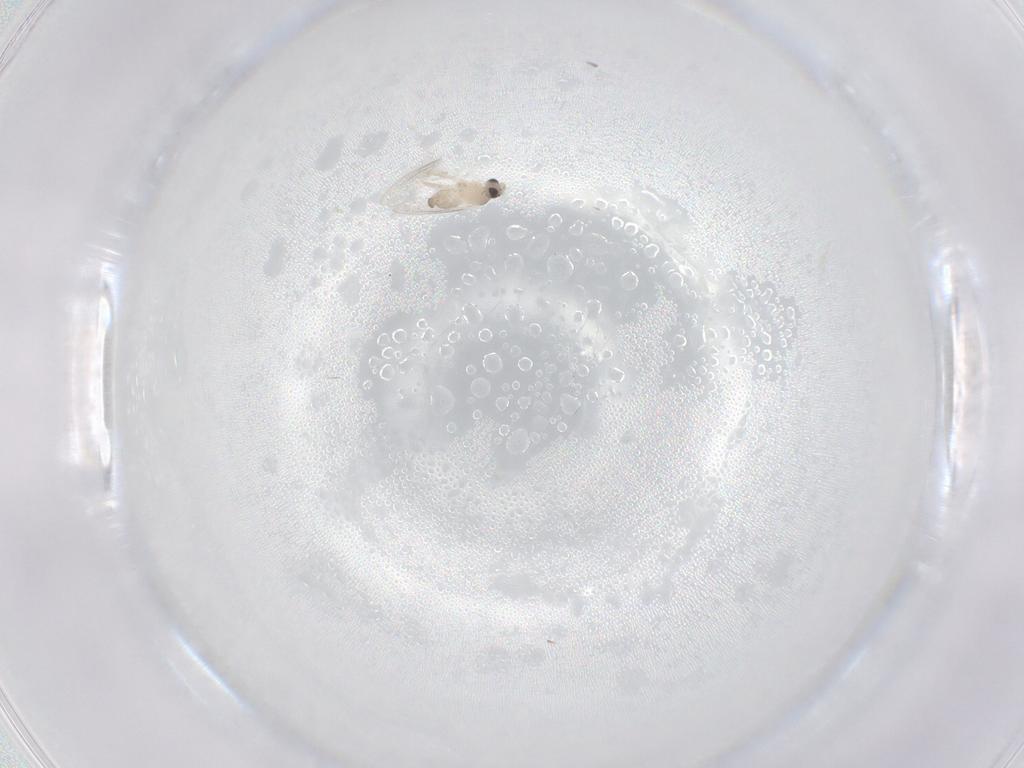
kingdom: Animalia
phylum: Arthropoda
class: Insecta
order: Diptera
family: Cecidomyiidae
